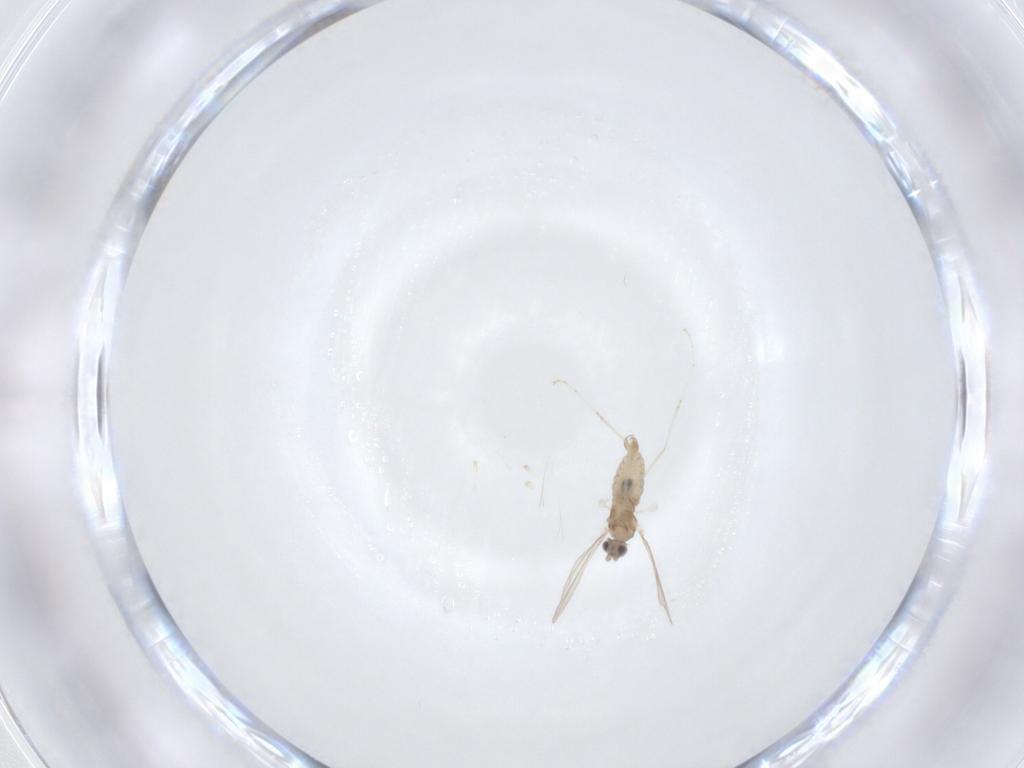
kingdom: Animalia
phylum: Arthropoda
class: Insecta
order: Diptera
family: Cecidomyiidae
